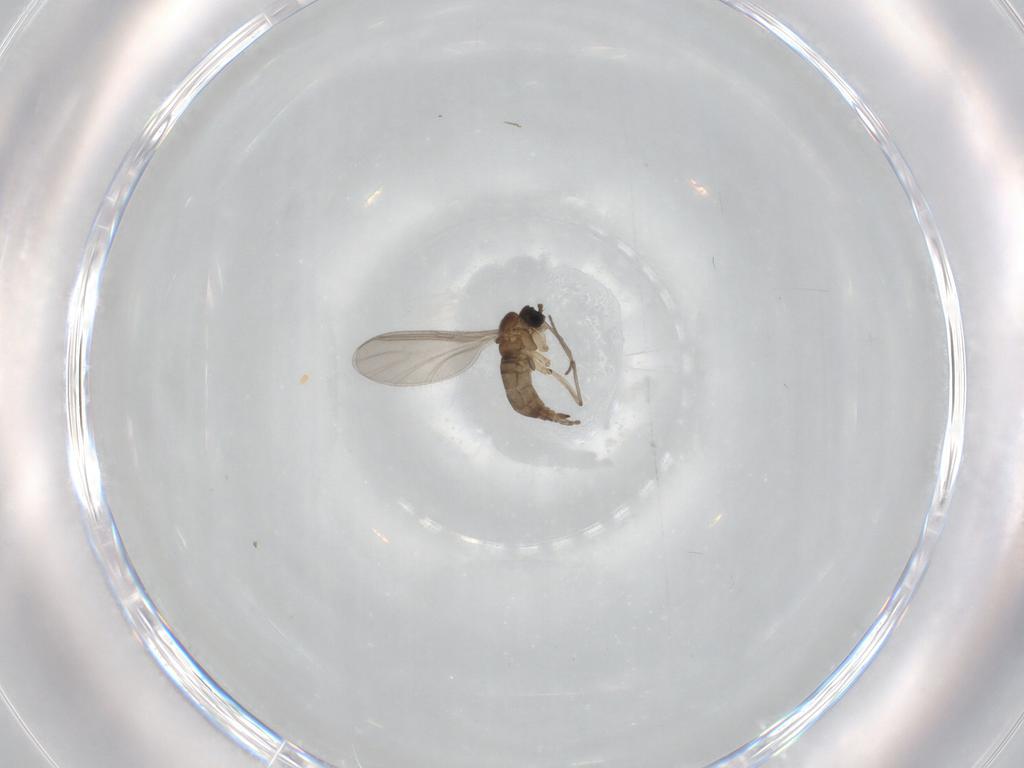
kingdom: Animalia
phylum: Arthropoda
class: Insecta
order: Diptera
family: Sciaridae
